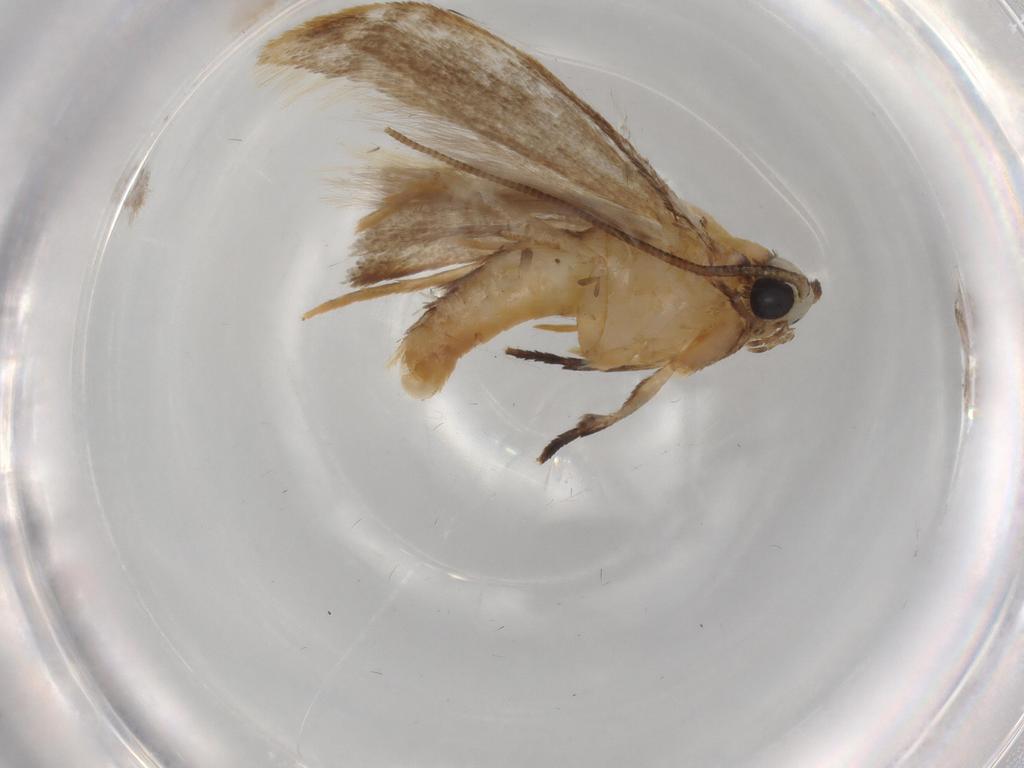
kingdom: Animalia
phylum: Arthropoda
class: Insecta
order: Lepidoptera
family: Tineidae
